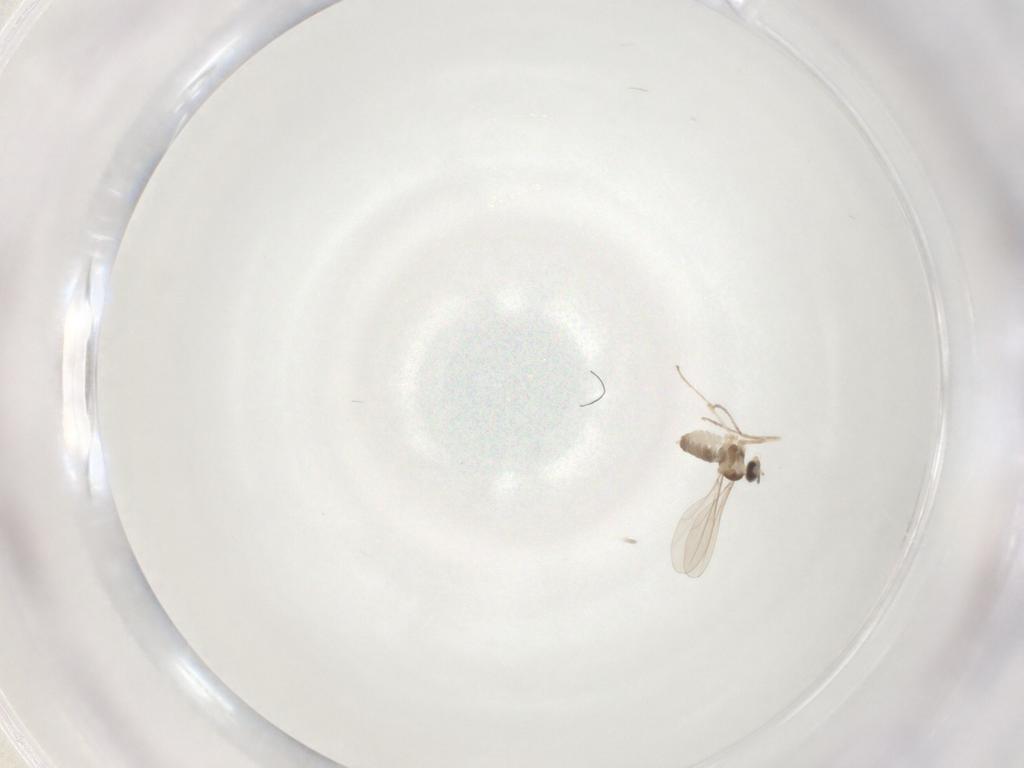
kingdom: Animalia
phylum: Arthropoda
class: Insecta
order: Diptera
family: Cecidomyiidae
